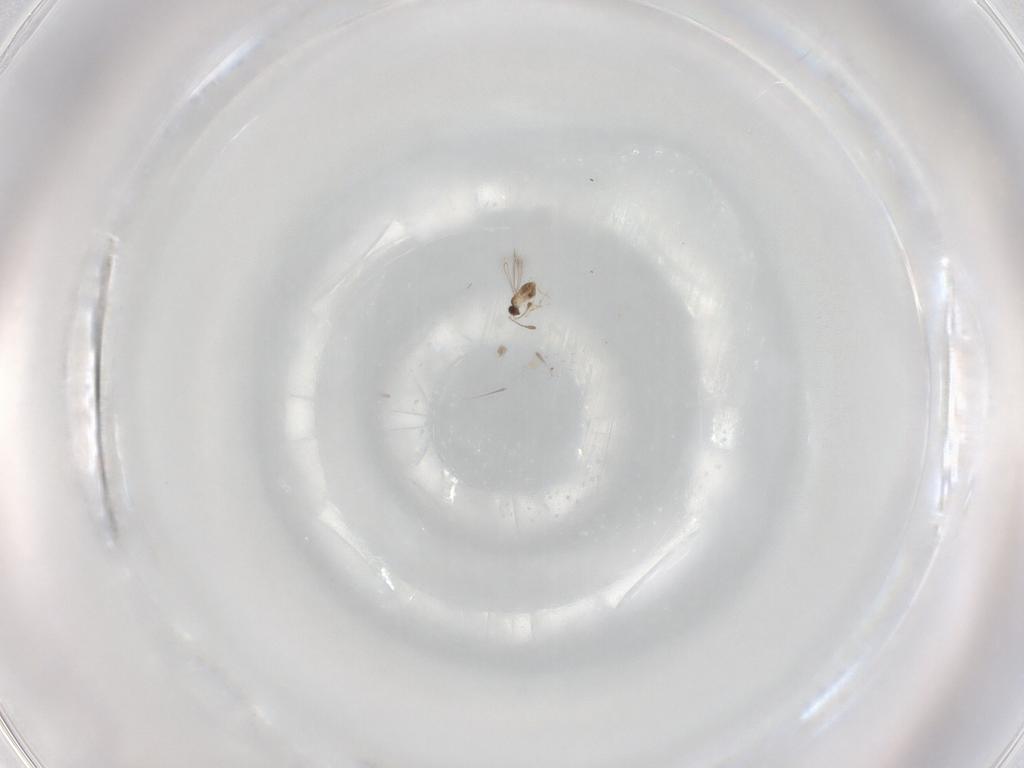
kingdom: Animalia
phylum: Arthropoda
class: Insecta
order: Hymenoptera
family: Mymaridae
